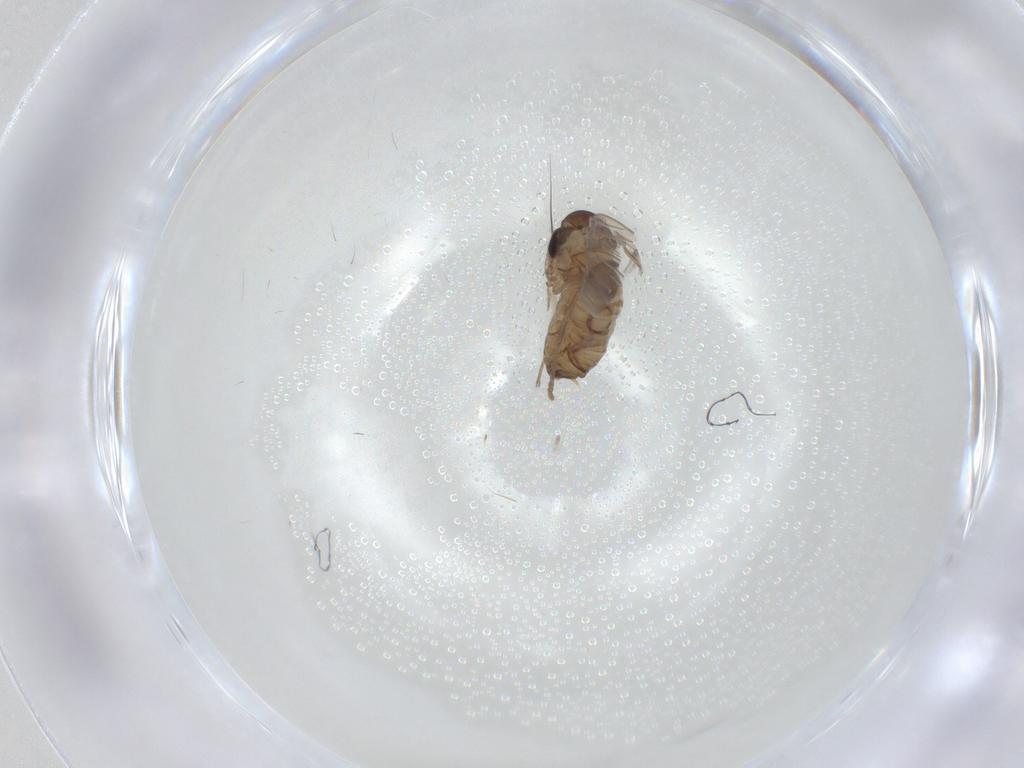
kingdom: Animalia
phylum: Arthropoda
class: Insecta
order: Diptera
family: Psychodidae
